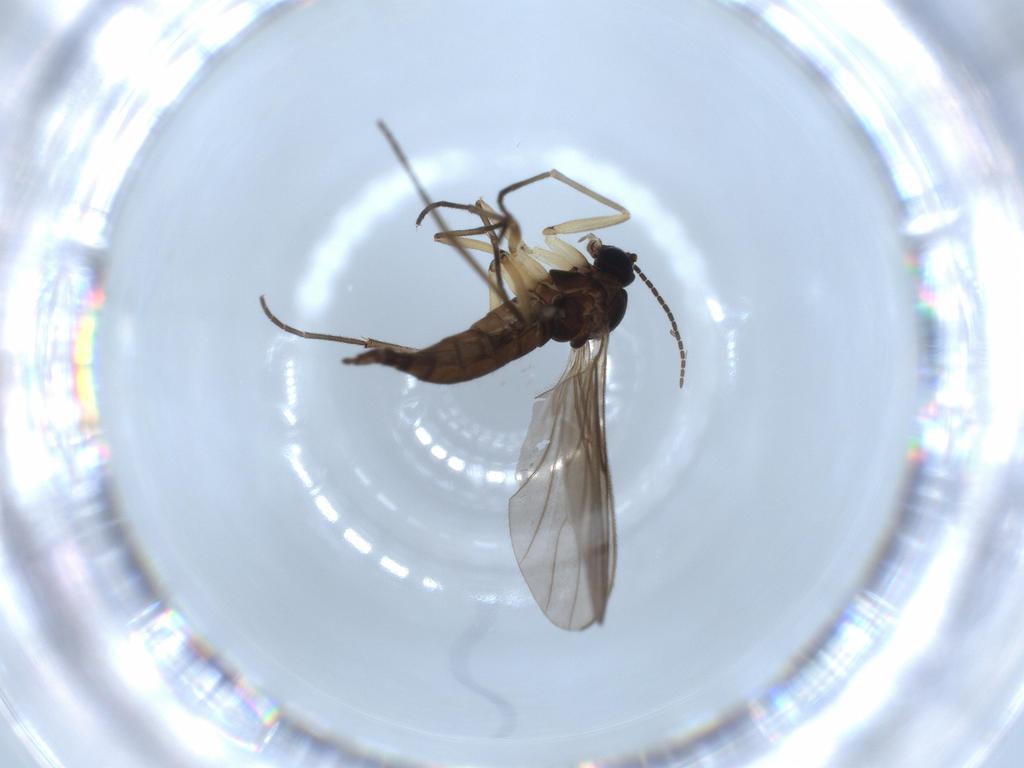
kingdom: Animalia
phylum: Arthropoda
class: Insecta
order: Diptera
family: Sciaridae
